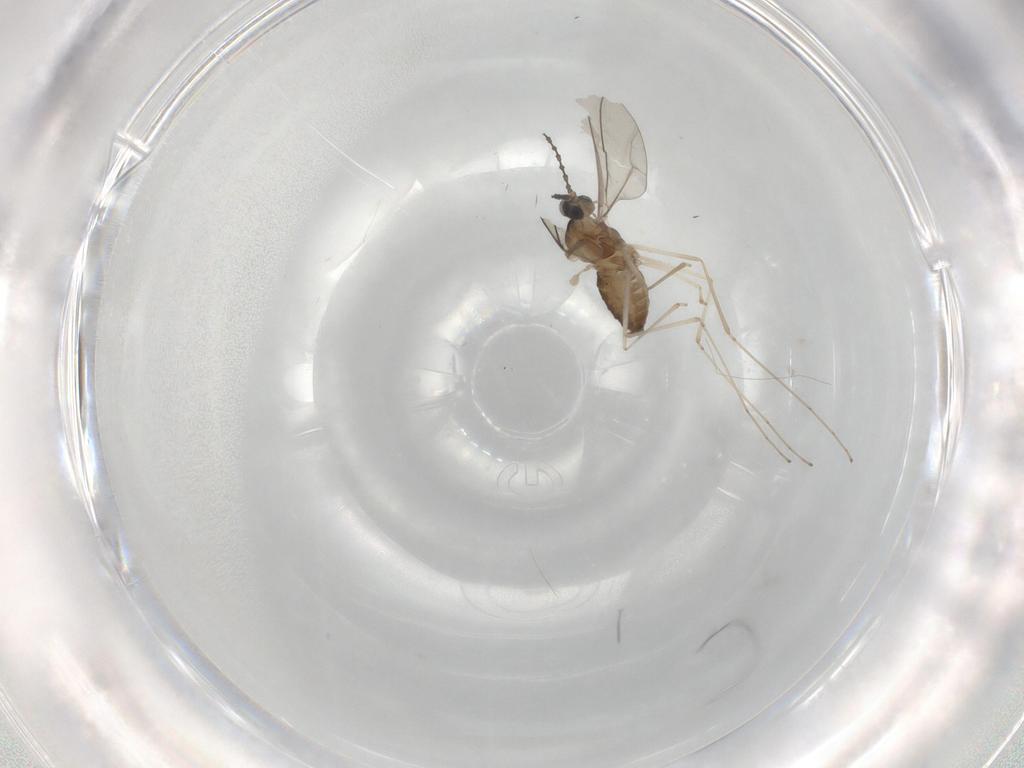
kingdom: Animalia
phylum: Arthropoda
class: Insecta
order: Diptera
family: Cecidomyiidae
